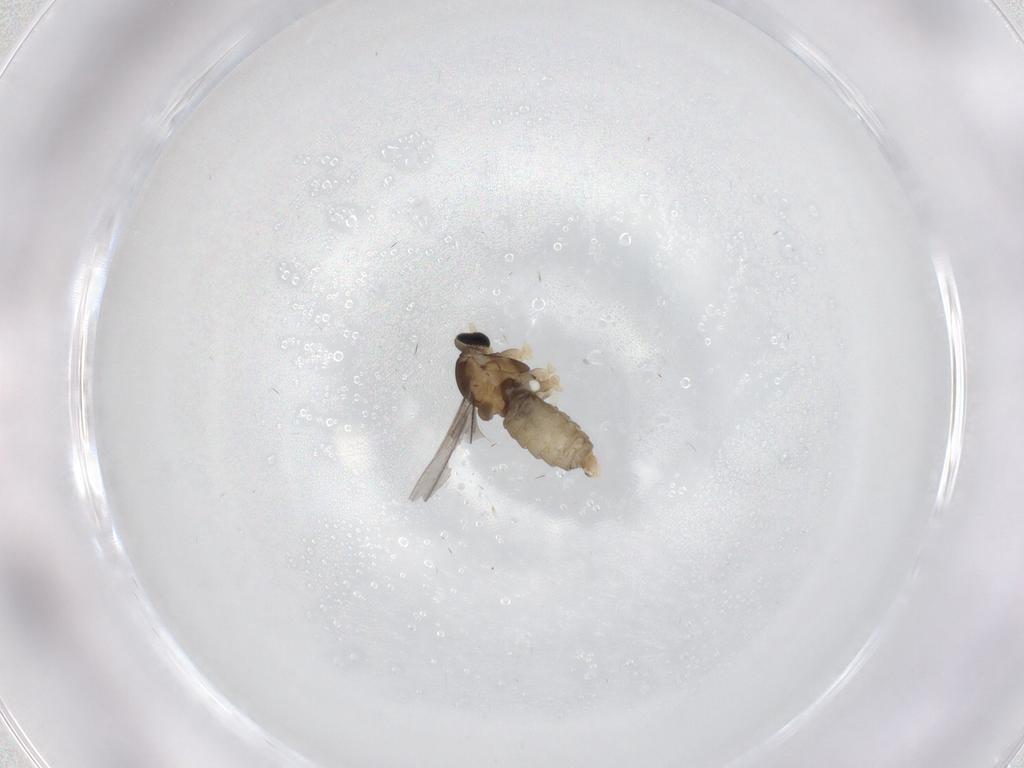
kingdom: Animalia
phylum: Arthropoda
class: Insecta
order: Diptera
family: Cecidomyiidae
